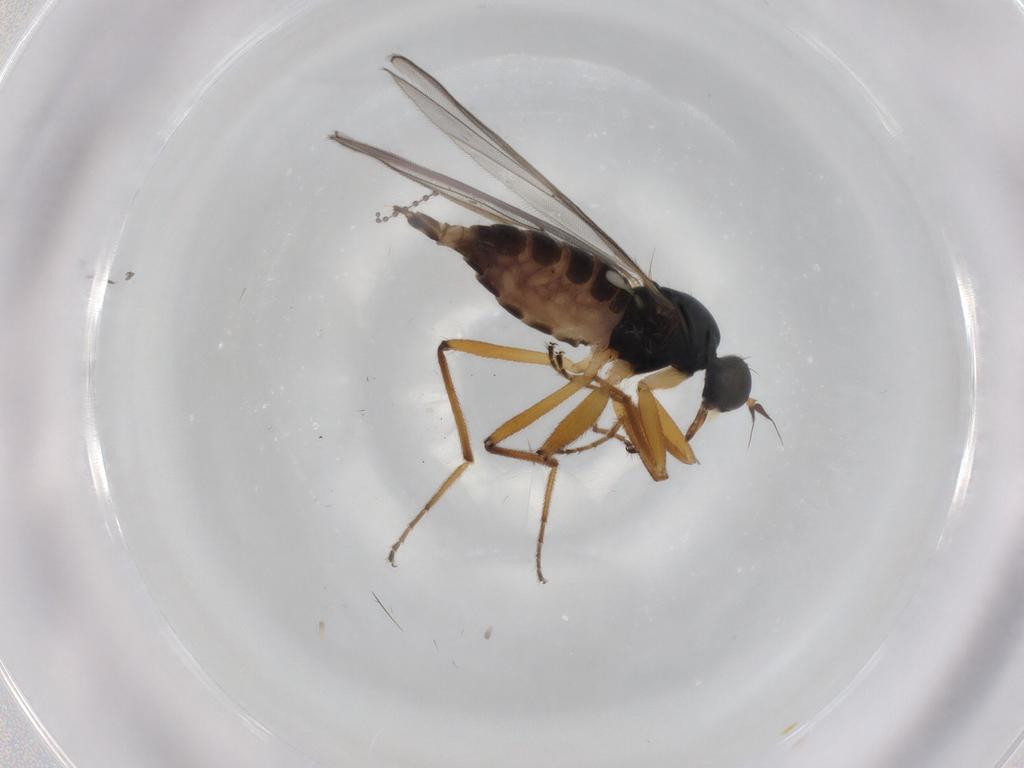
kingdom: Animalia
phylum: Arthropoda
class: Insecta
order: Diptera
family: Hybotidae
